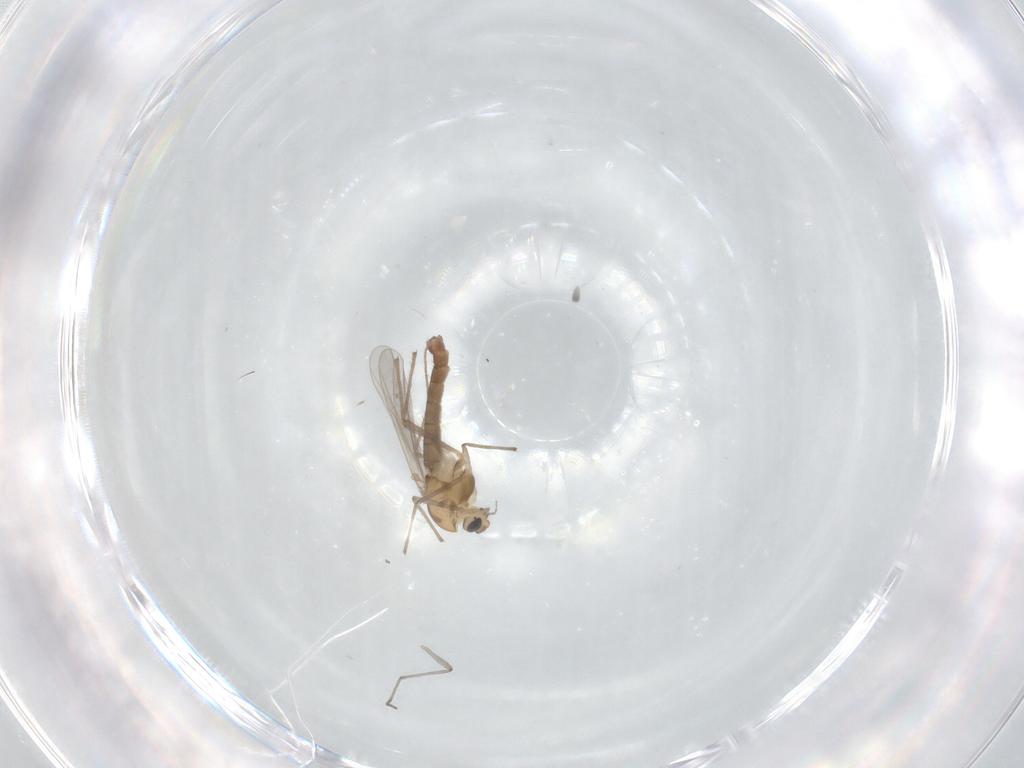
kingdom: Animalia
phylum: Arthropoda
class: Insecta
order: Diptera
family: Chironomidae
